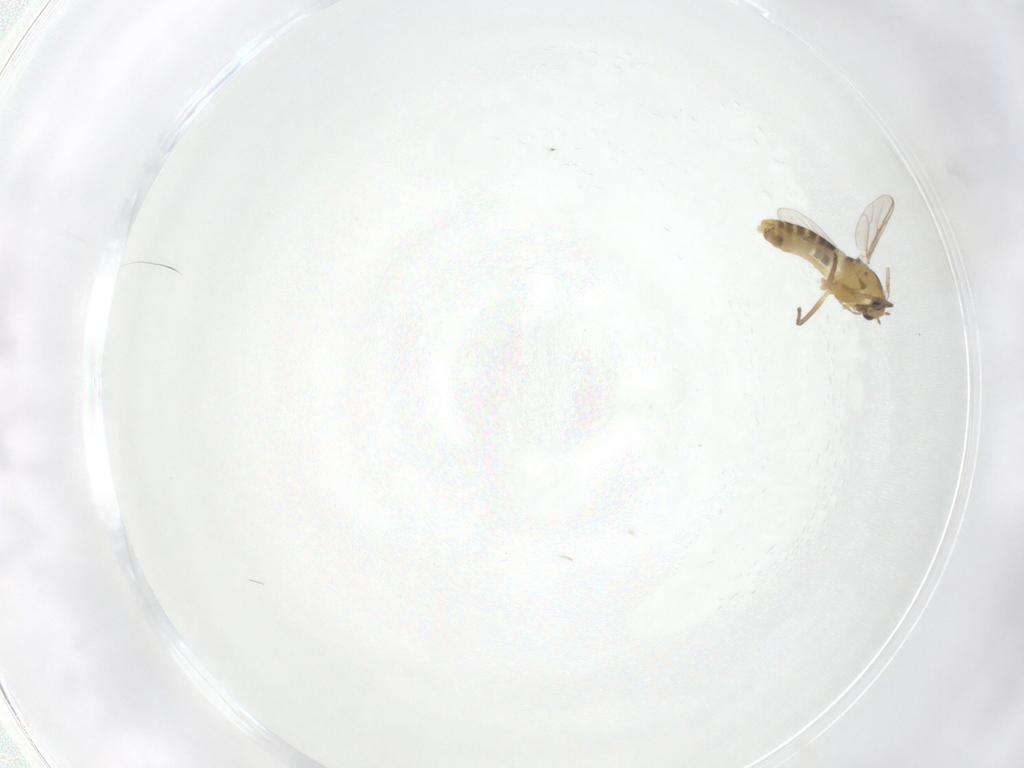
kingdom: Animalia
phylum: Arthropoda
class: Insecta
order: Diptera
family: Chironomidae
